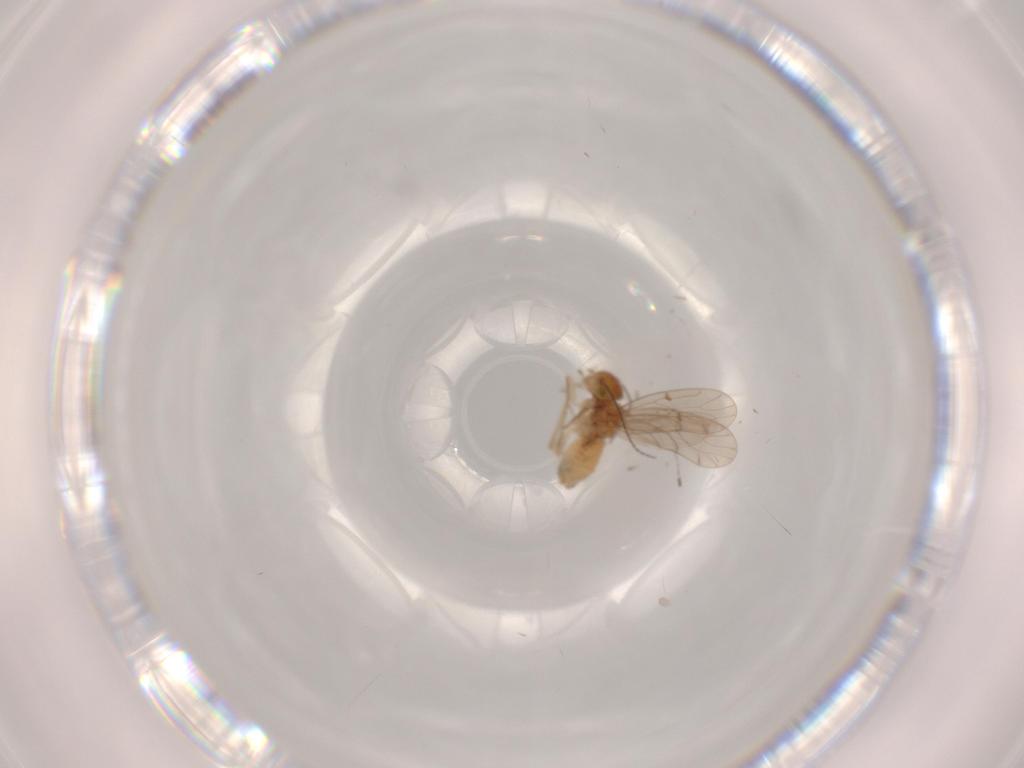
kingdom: Animalia
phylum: Arthropoda
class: Insecta
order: Psocodea
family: Ectopsocidae
